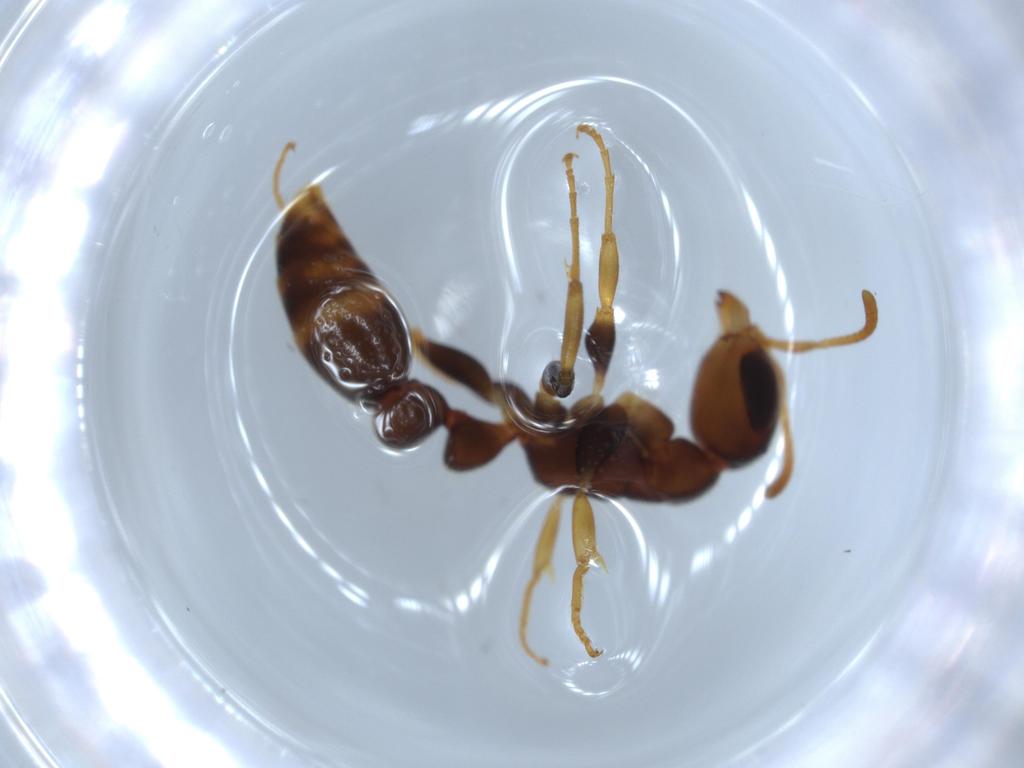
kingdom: Animalia
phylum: Arthropoda
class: Insecta
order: Hymenoptera
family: Formicidae
